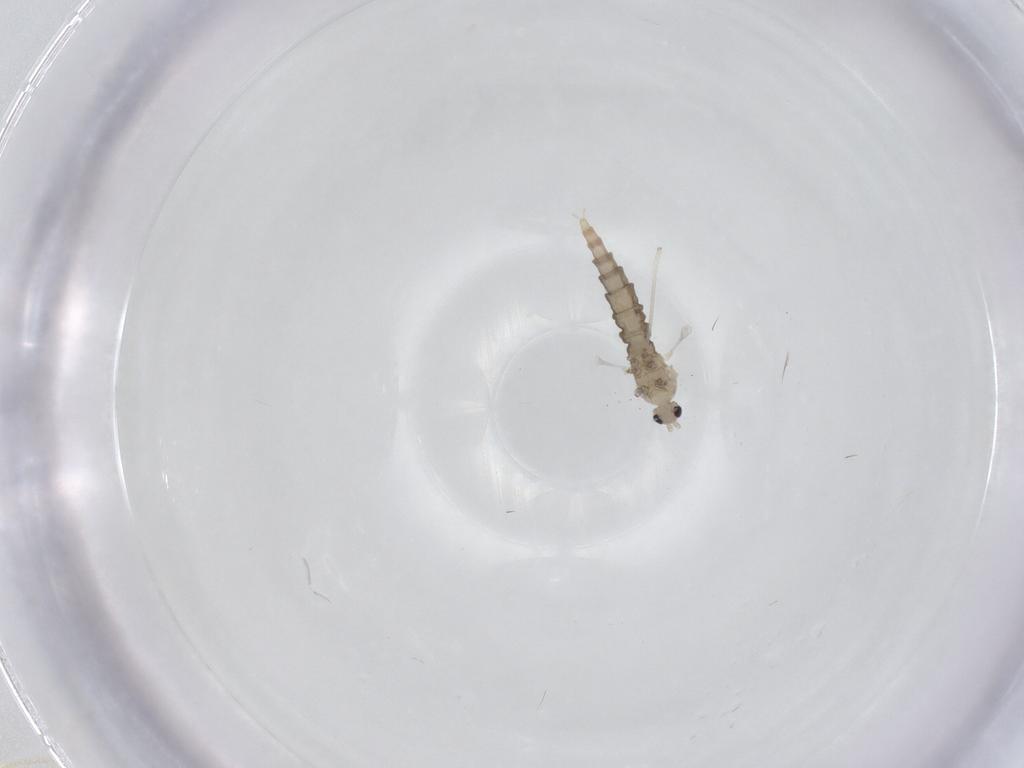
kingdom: Animalia
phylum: Arthropoda
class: Insecta
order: Diptera
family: Cecidomyiidae
